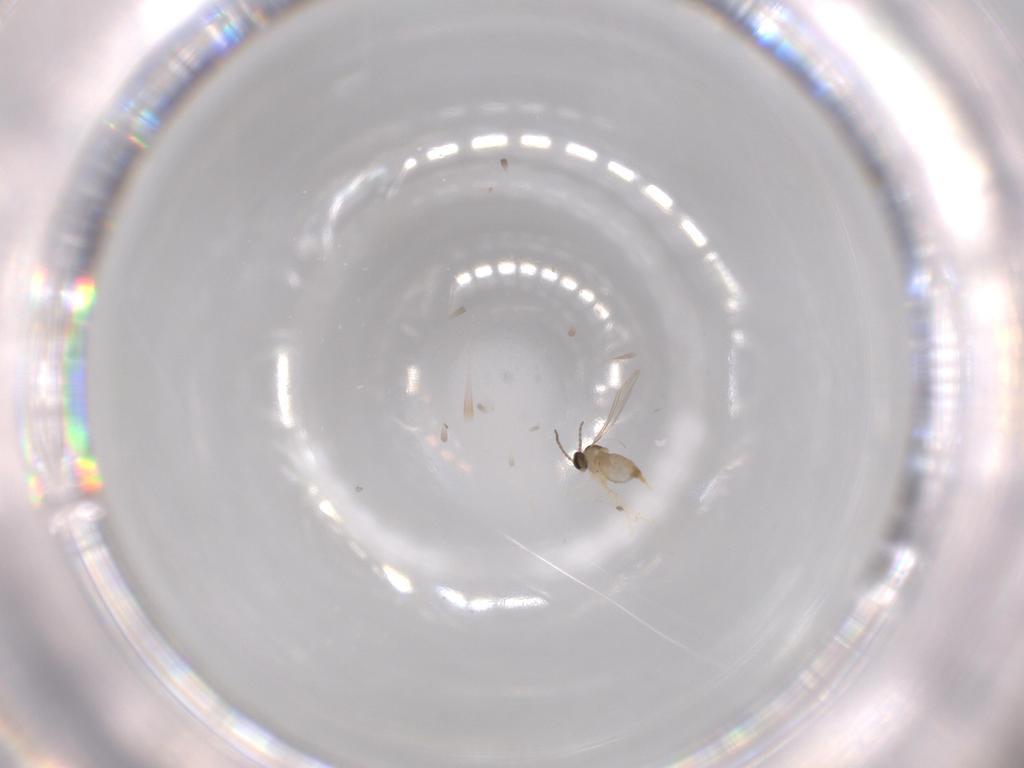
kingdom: Animalia
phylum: Arthropoda
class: Insecta
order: Diptera
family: Cecidomyiidae
